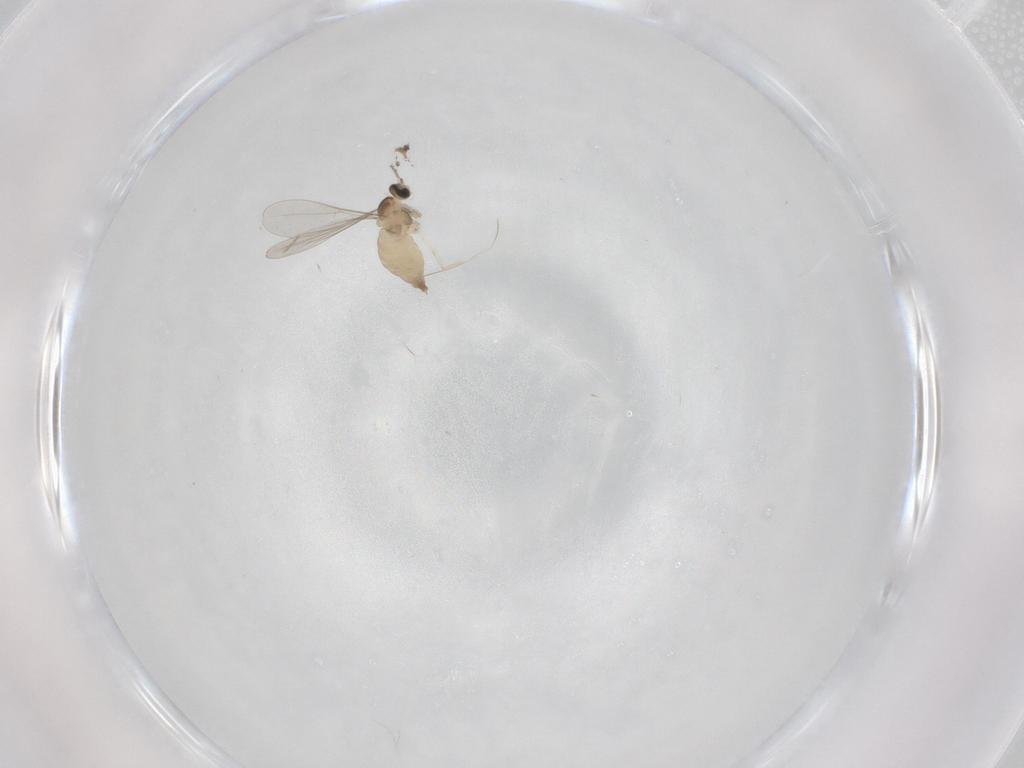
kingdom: Animalia
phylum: Arthropoda
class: Insecta
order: Diptera
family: Cecidomyiidae
